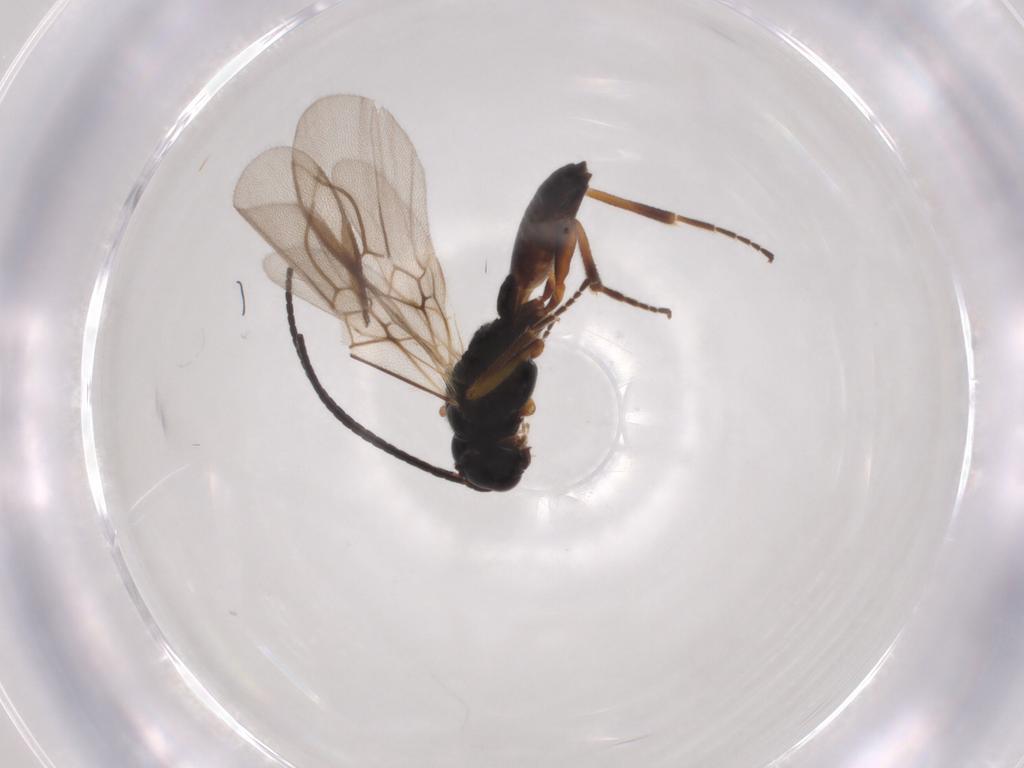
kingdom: Animalia
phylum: Arthropoda
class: Insecta
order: Hymenoptera
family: Braconidae
